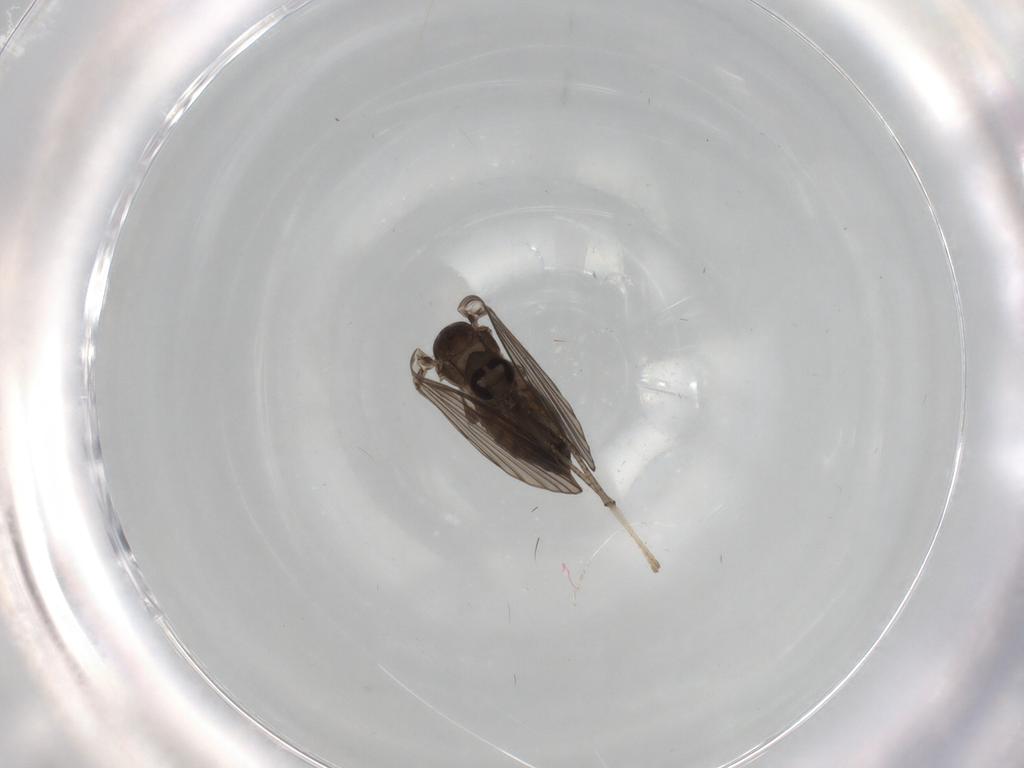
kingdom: Animalia
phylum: Arthropoda
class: Insecta
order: Diptera
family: Psychodidae
